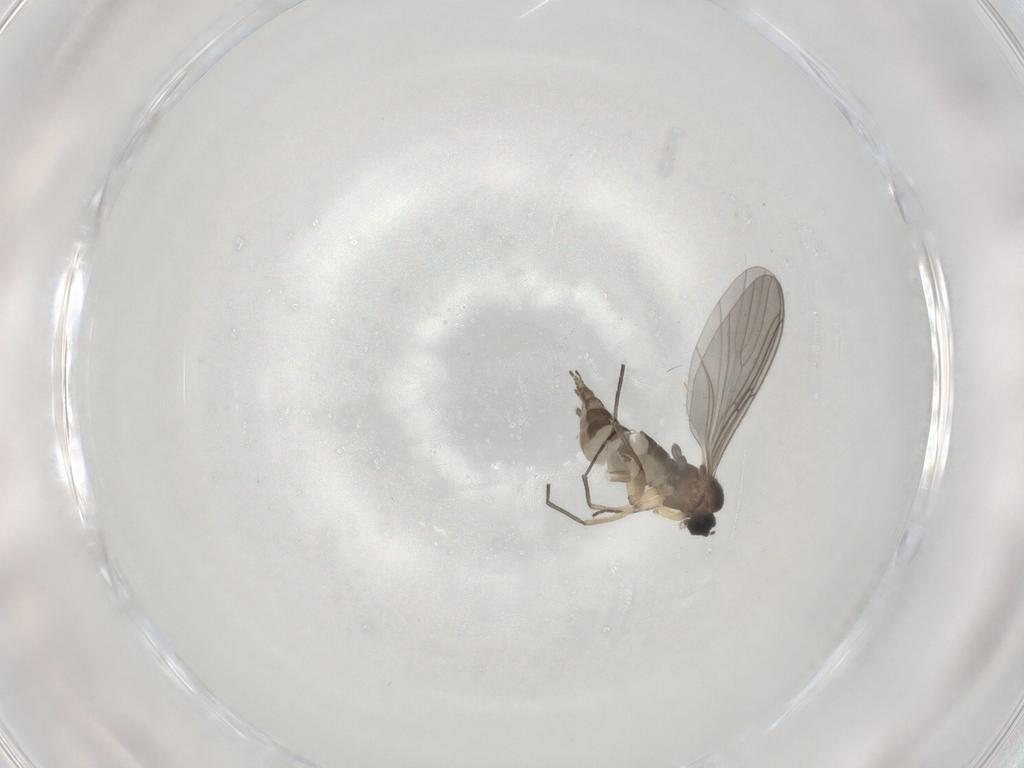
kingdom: Animalia
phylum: Arthropoda
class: Insecta
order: Diptera
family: Sciaridae
